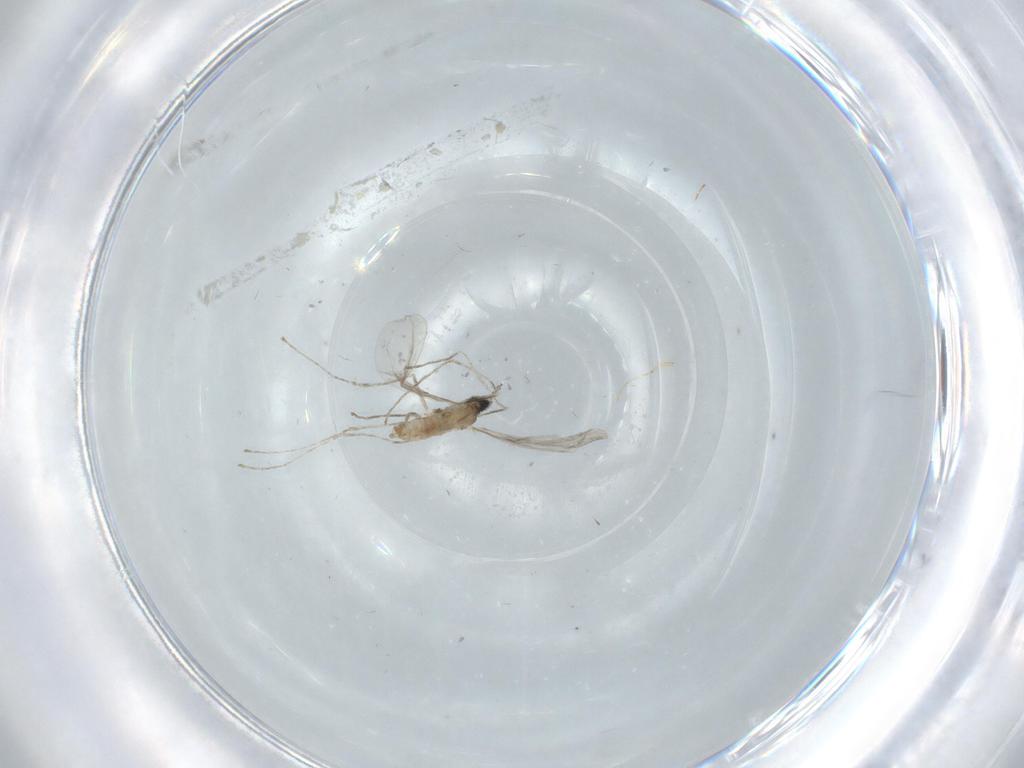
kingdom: Animalia
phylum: Arthropoda
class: Insecta
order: Diptera
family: Cecidomyiidae
